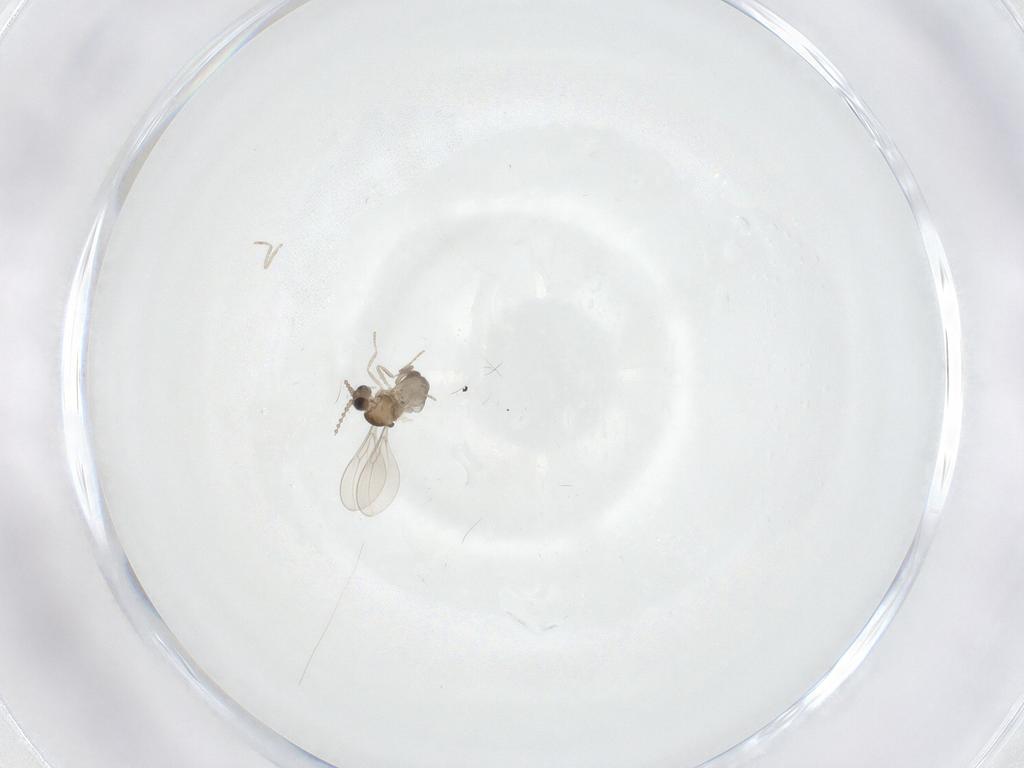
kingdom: Animalia
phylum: Arthropoda
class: Insecta
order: Diptera
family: Cecidomyiidae
